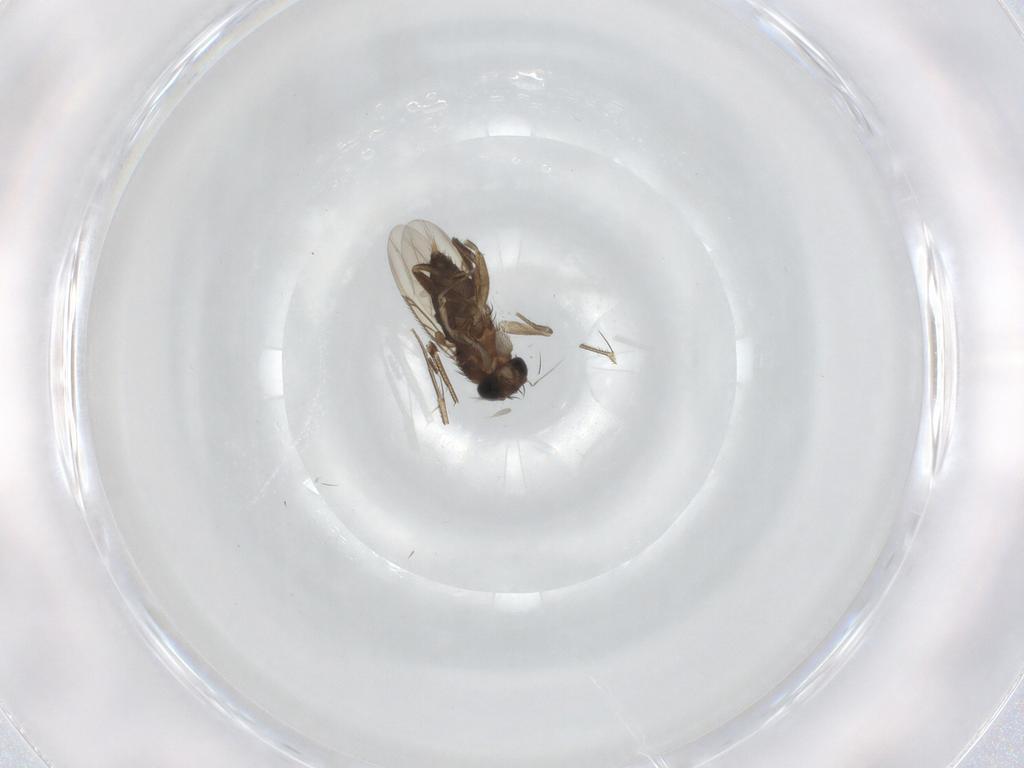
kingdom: Animalia
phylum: Arthropoda
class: Insecta
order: Diptera
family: Phoridae
